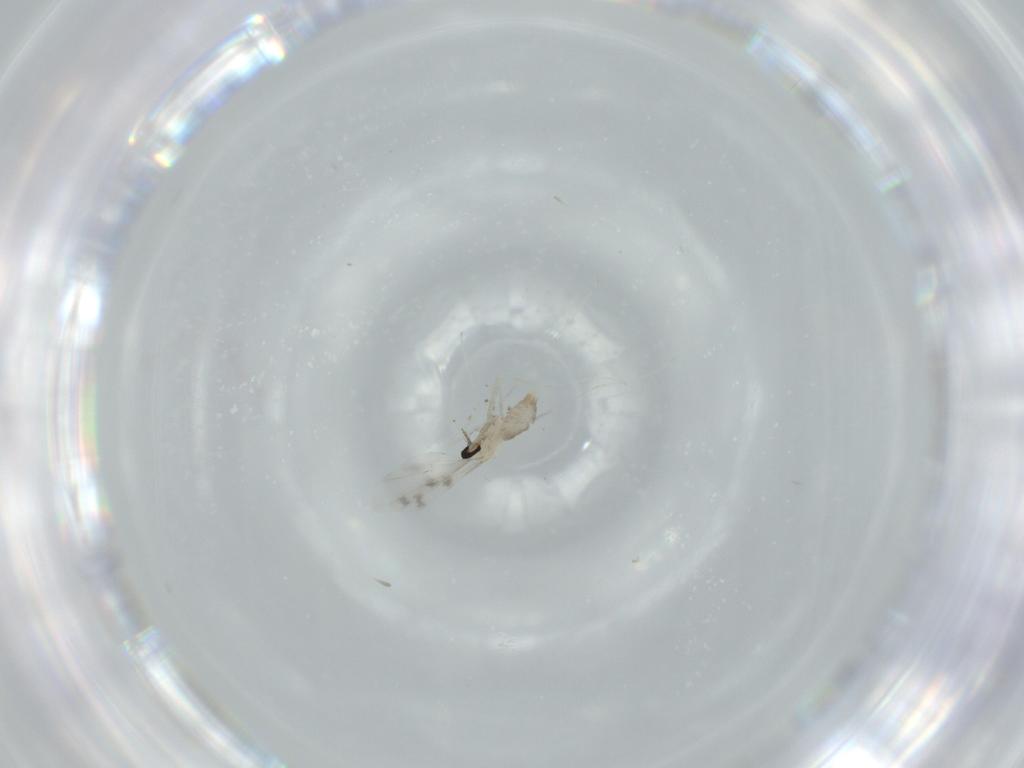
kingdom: Animalia
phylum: Arthropoda
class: Insecta
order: Diptera
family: Cecidomyiidae
